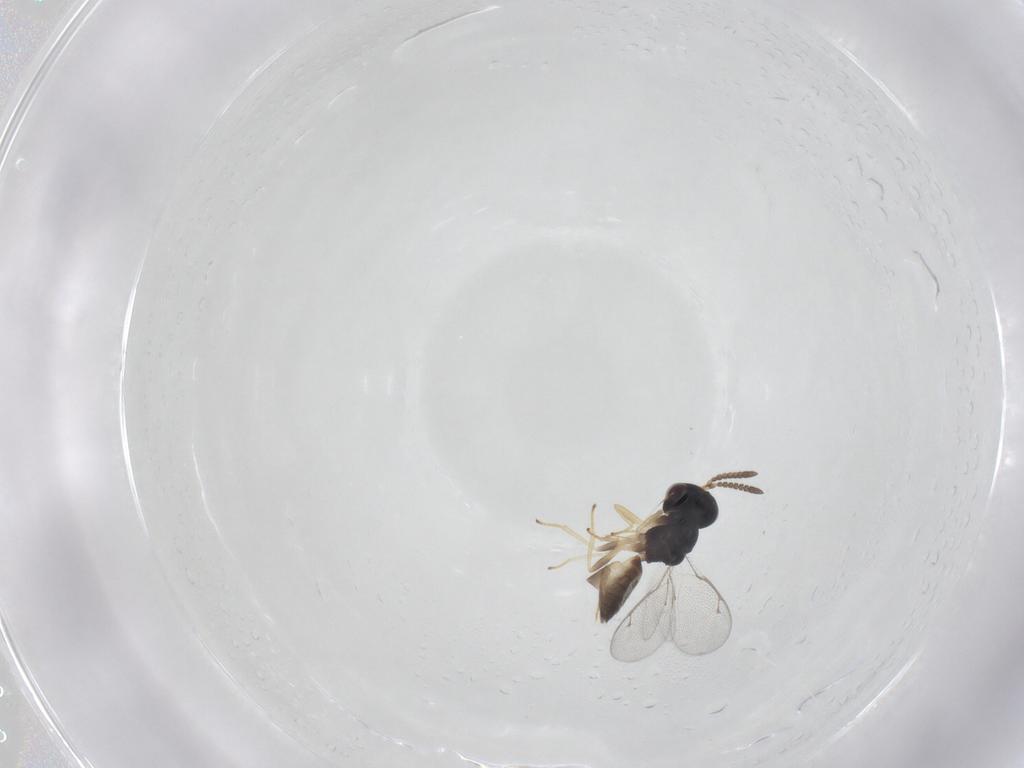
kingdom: Animalia
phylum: Arthropoda
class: Insecta
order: Hymenoptera
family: Pteromalidae
